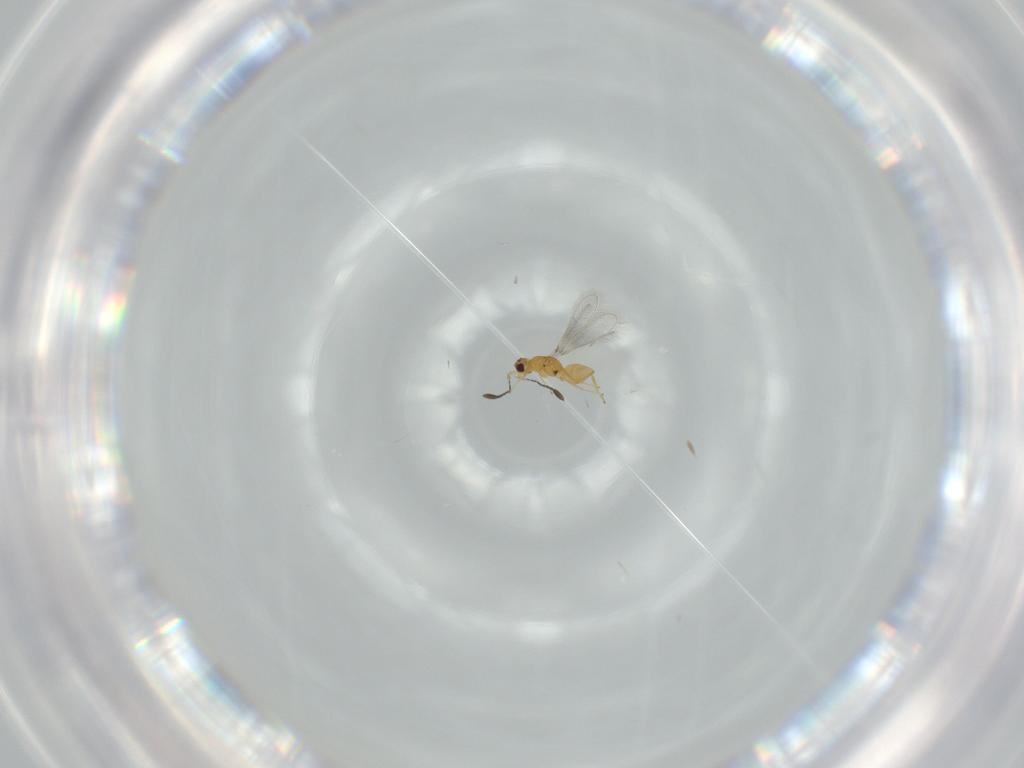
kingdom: Animalia
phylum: Arthropoda
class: Insecta
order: Hymenoptera
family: Mymaridae
